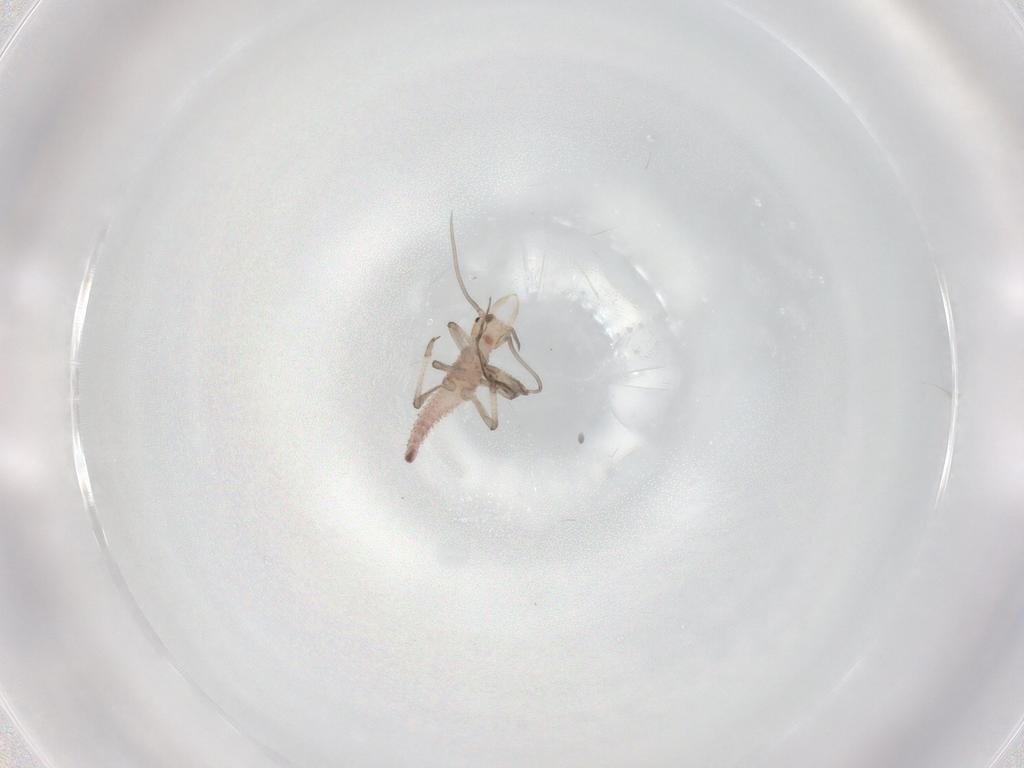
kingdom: Animalia
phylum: Arthropoda
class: Insecta
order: Neuroptera
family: Hemerobiidae
